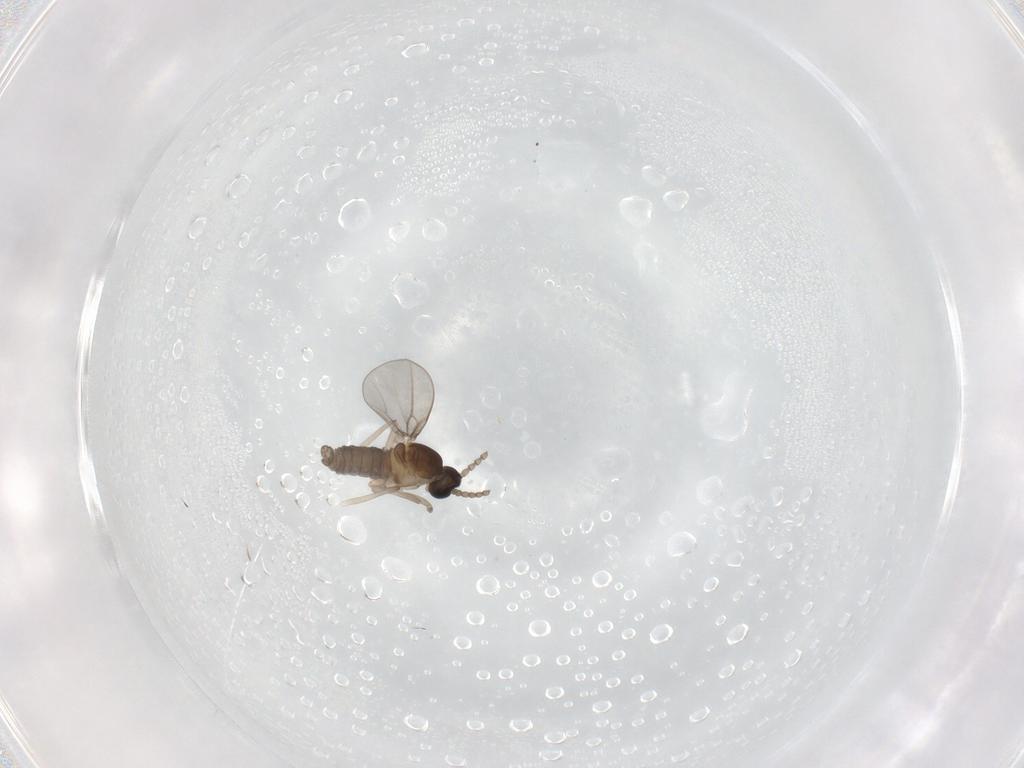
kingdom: Animalia
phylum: Arthropoda
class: Insecta
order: Diptera
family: Cecidomyiidae
